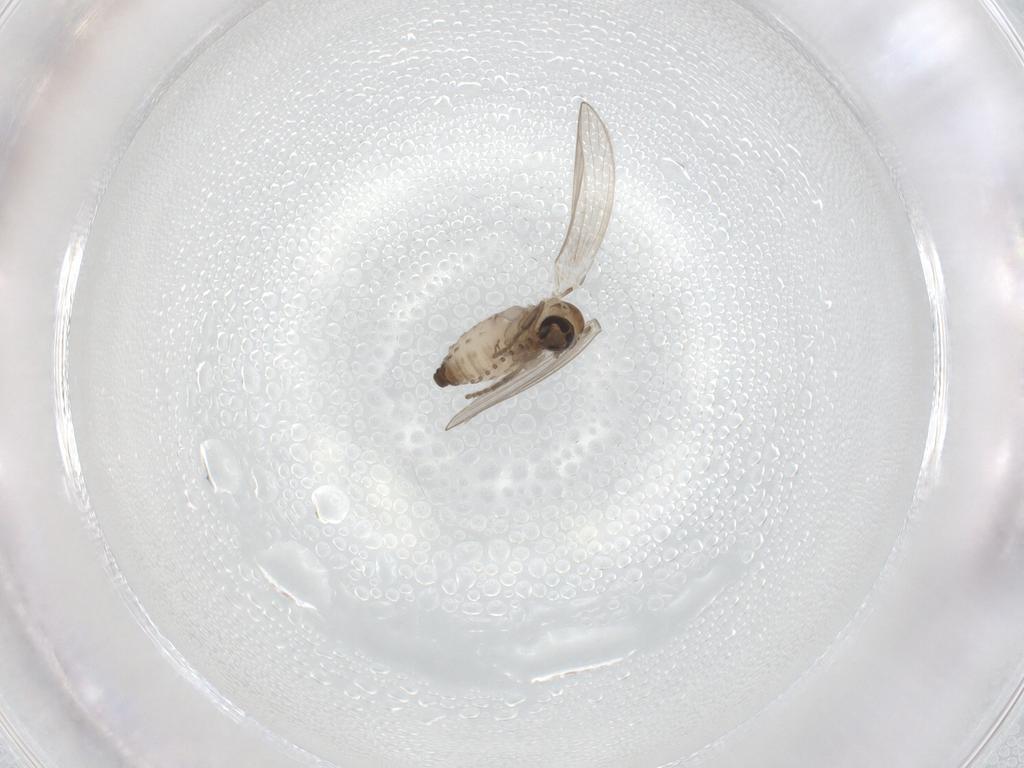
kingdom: Animalia
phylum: Arthropoda
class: Insecta
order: Diptera
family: Psychodidae
